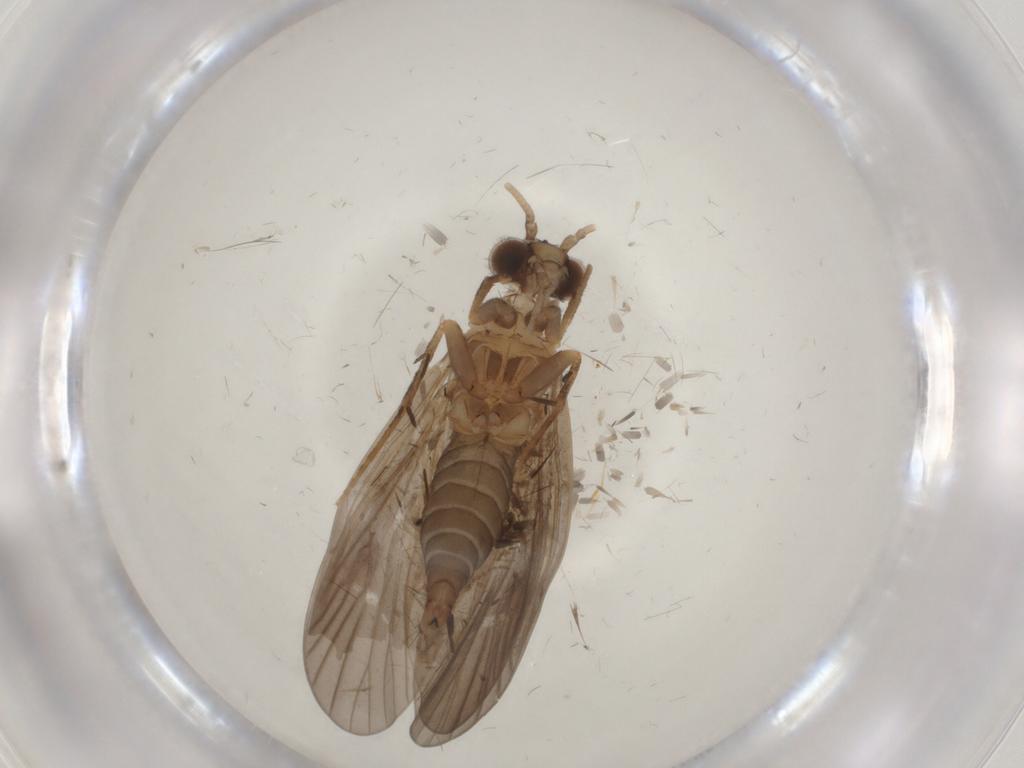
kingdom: Animalia
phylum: Arthropoda
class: Insecta
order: Trichoptera
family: Philopotamidae
